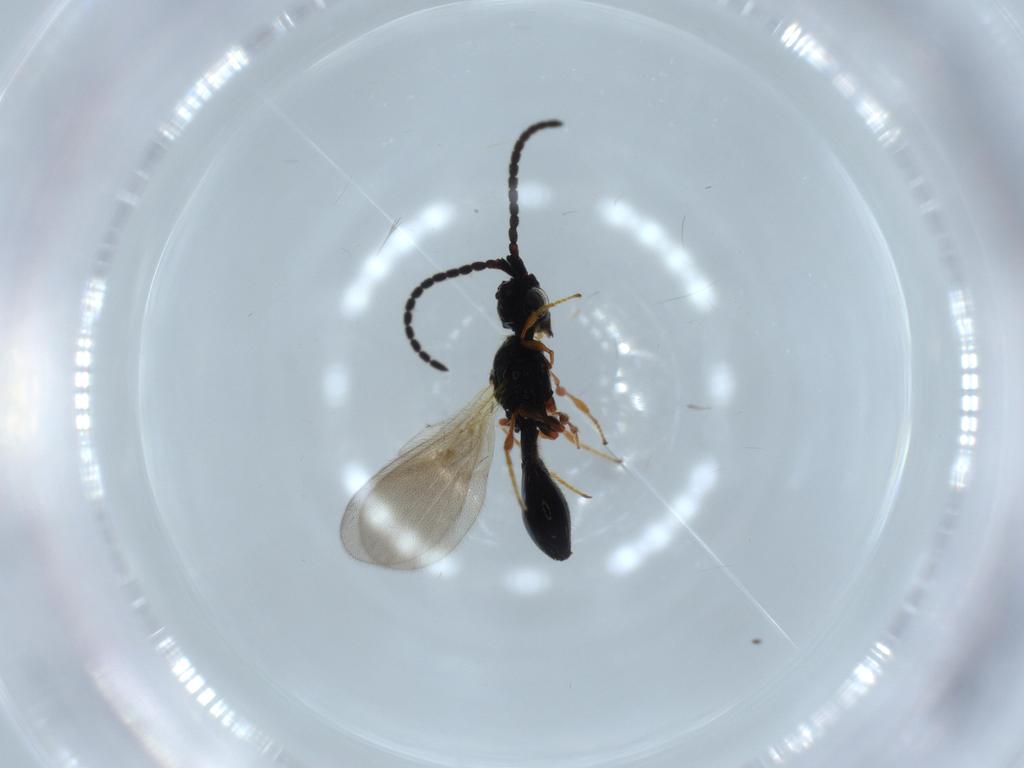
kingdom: Animalia
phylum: Arthropoda
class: Insecta
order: Hymenoptera
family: Diapriidae
